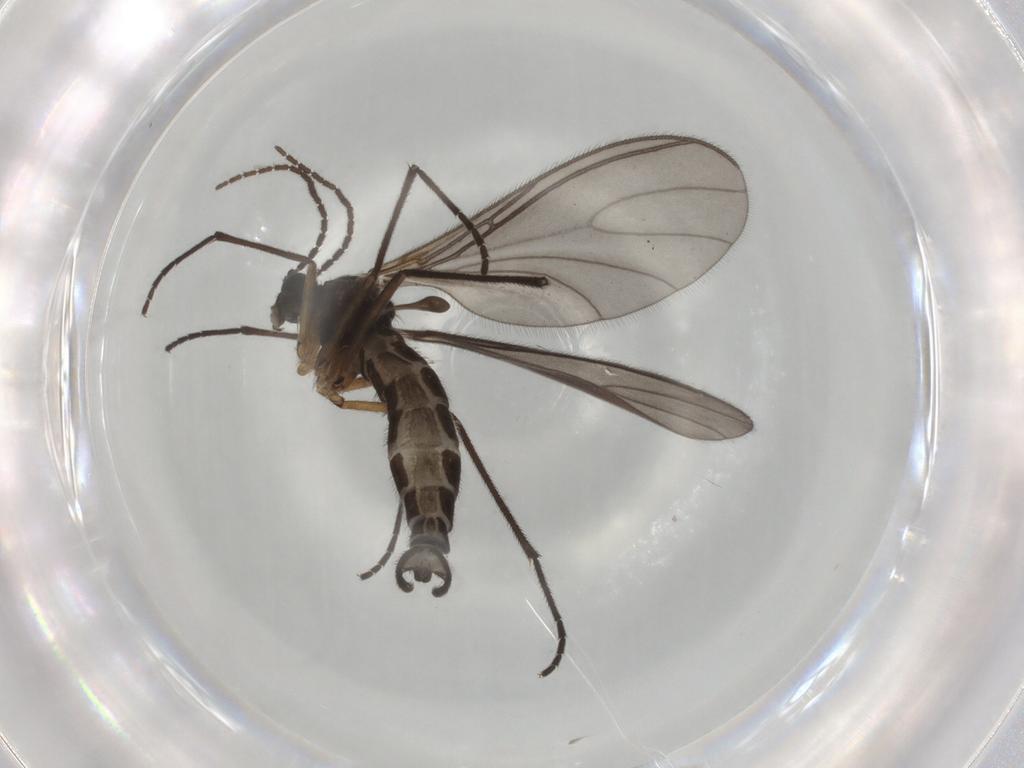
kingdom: Animalia
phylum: Arthropoda
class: Insecta
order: Diptera
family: Sciaridae
